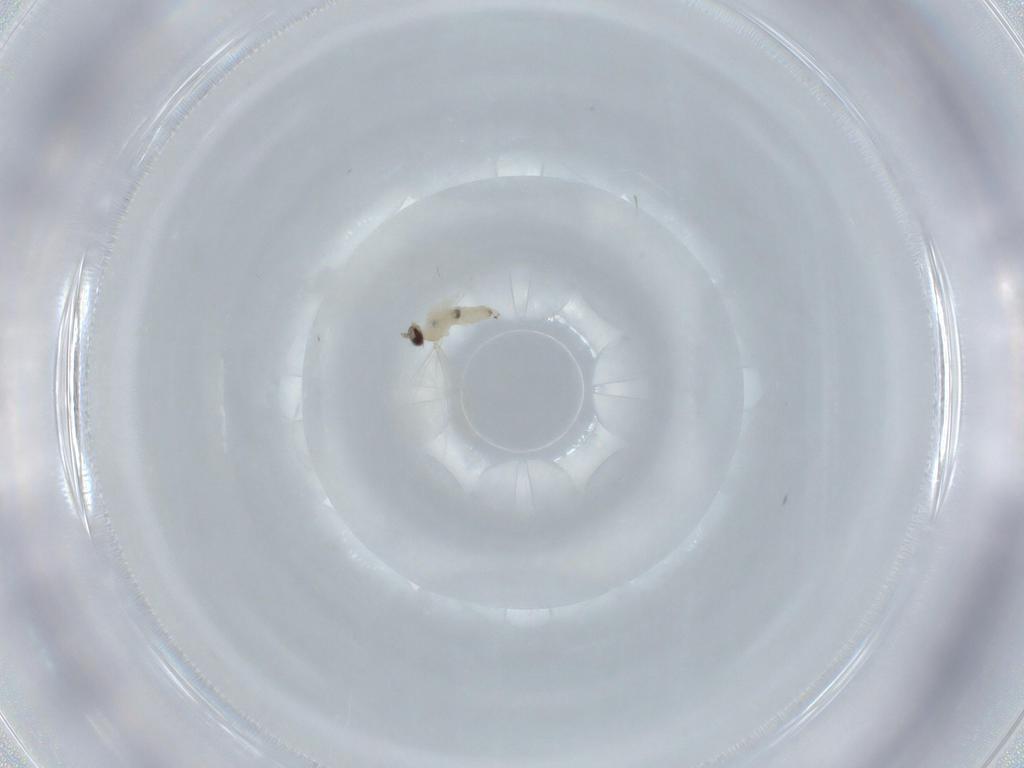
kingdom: Animalia
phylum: Arthropoda
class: Insecta
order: Diptera
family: Cecidomyiidae
